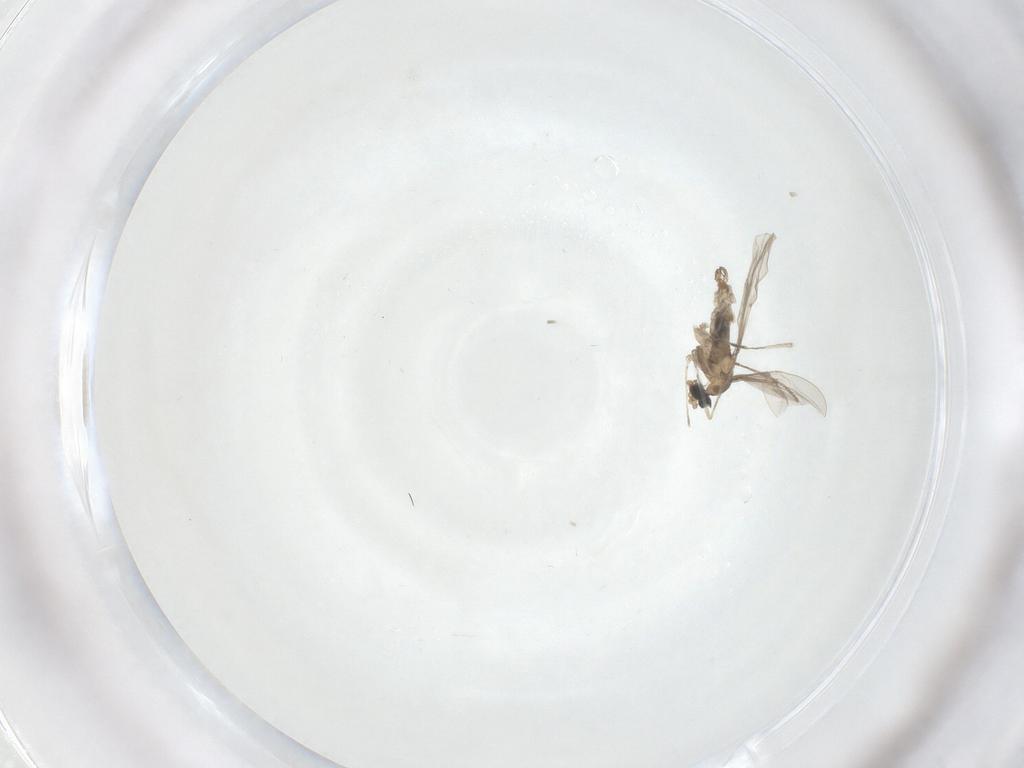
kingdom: Animalia
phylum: Arthropoda
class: Insecta
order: Diptera
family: Cecidomyiidae
